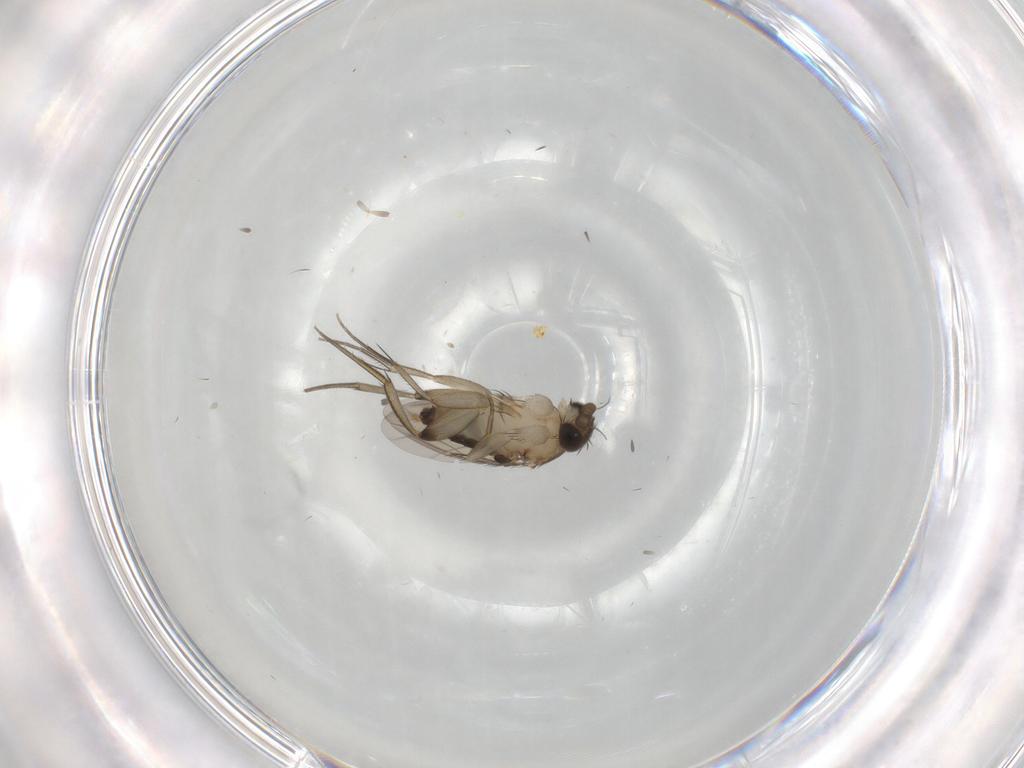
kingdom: Animalia
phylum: Arthropoda
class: Insecta
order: Diptera
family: Phoridae
